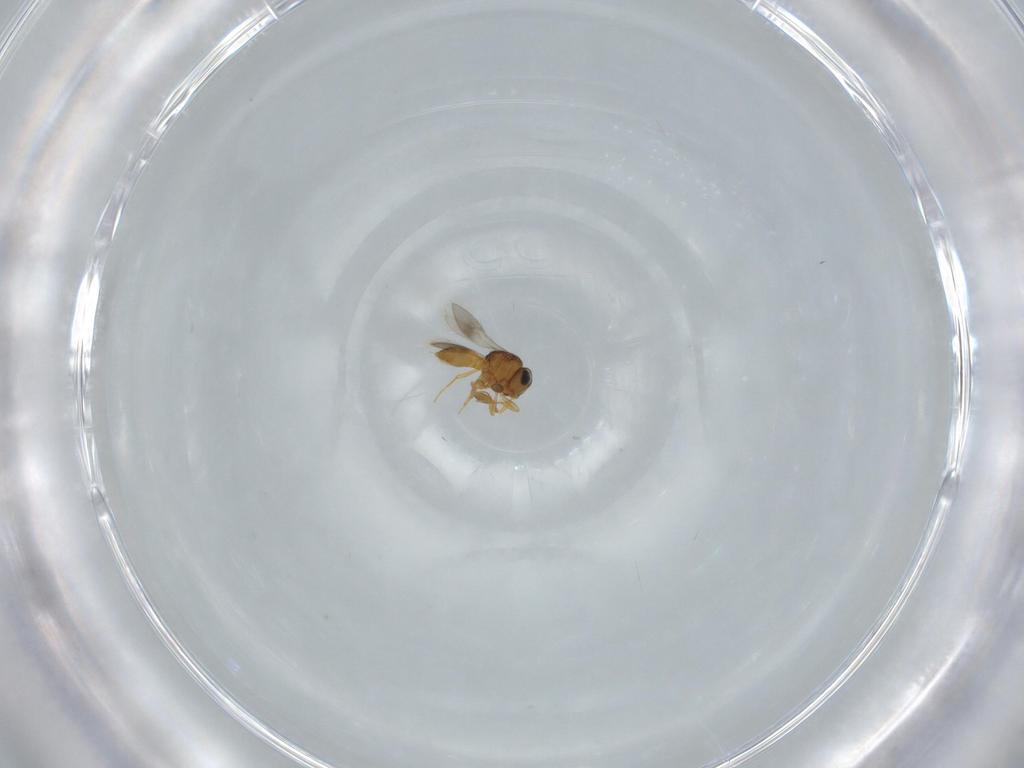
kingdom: Animalia
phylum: Arthropoda
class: Insecta
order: Hymenoptera
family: Scelionidae
